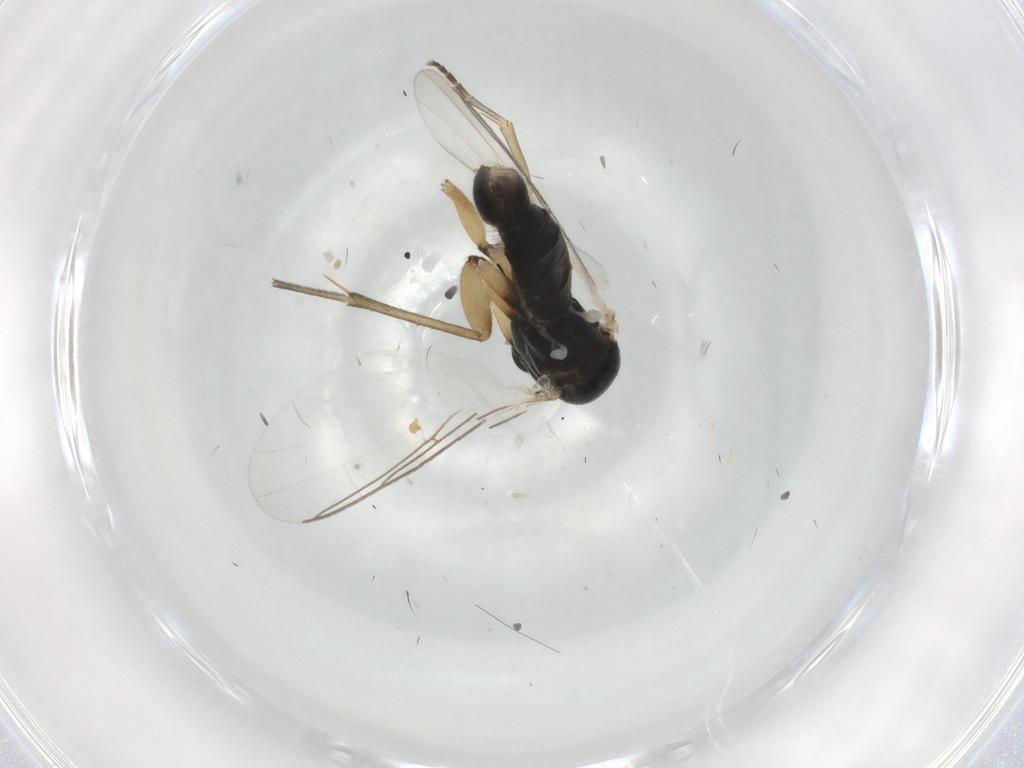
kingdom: Animalia
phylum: Arthropoda
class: Insecta
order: Diptera
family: Mycetophilidae
